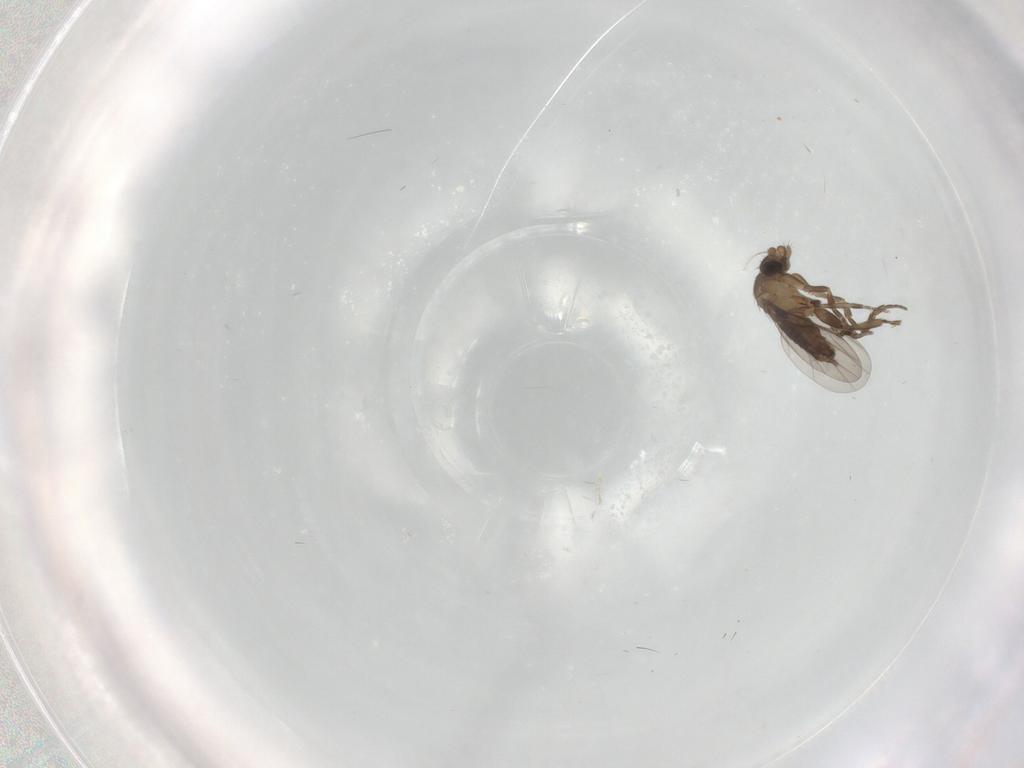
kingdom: Animalia
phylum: Arthropoda
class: Insecta
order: Diptera
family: Phoridae
